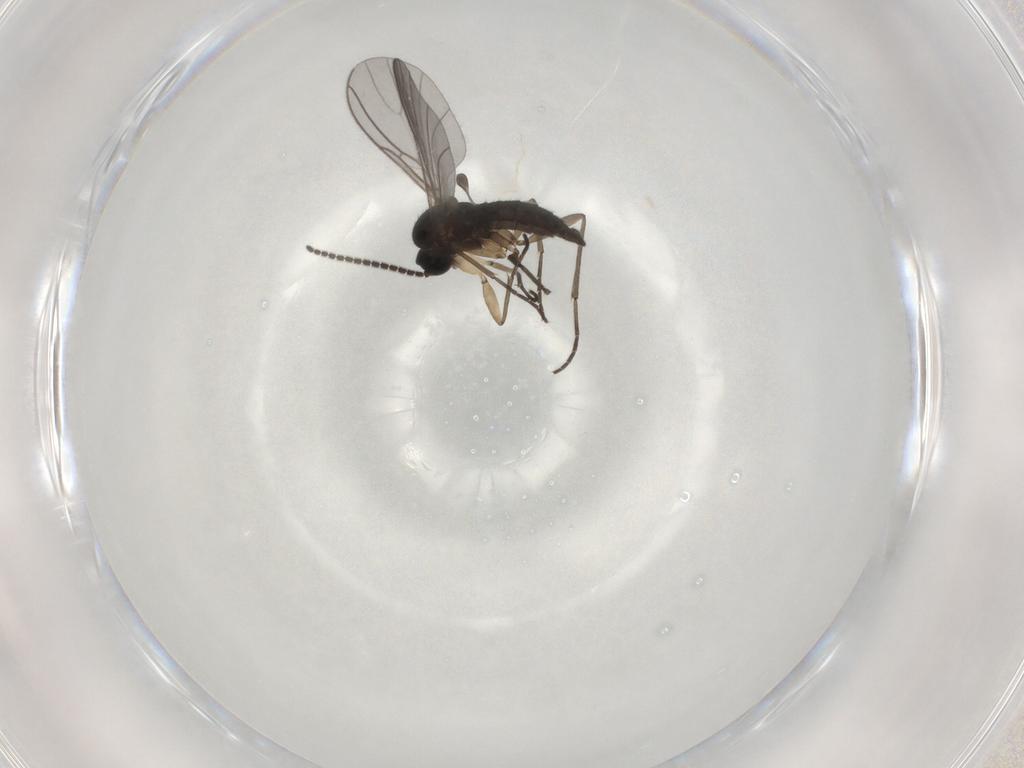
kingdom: Animalia
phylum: Arthropoda
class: Insecta
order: Diptera
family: Sciaridae
